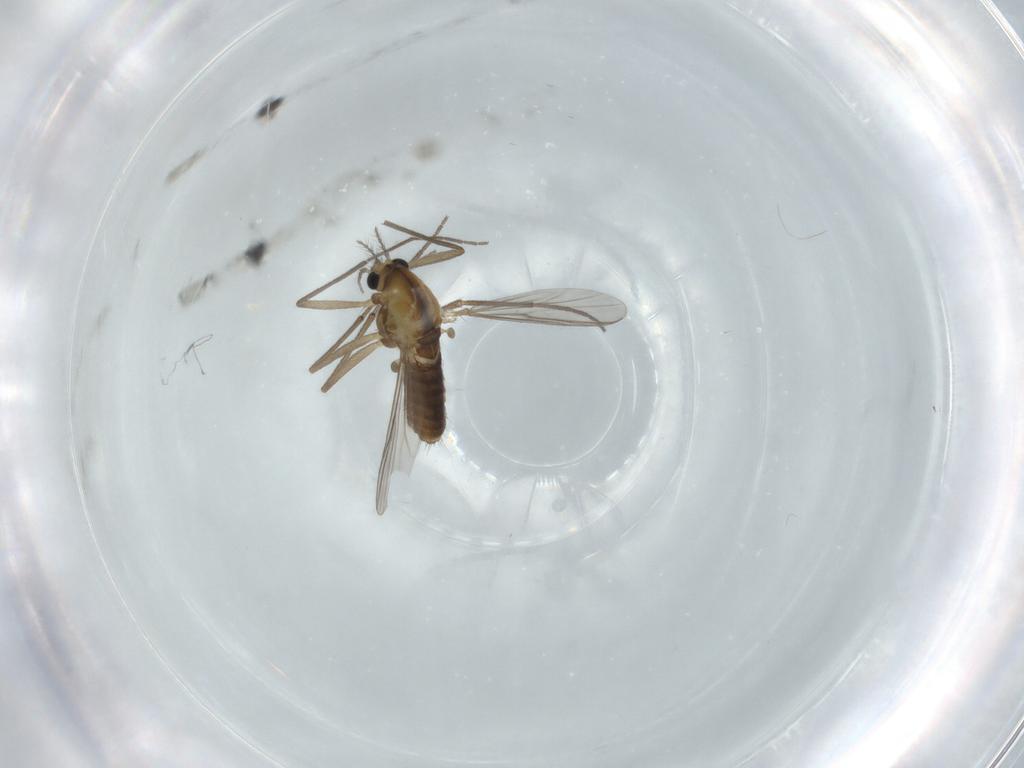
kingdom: Animalia
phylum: Arthropoda
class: Insecta
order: Diptera
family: Chironomidae
